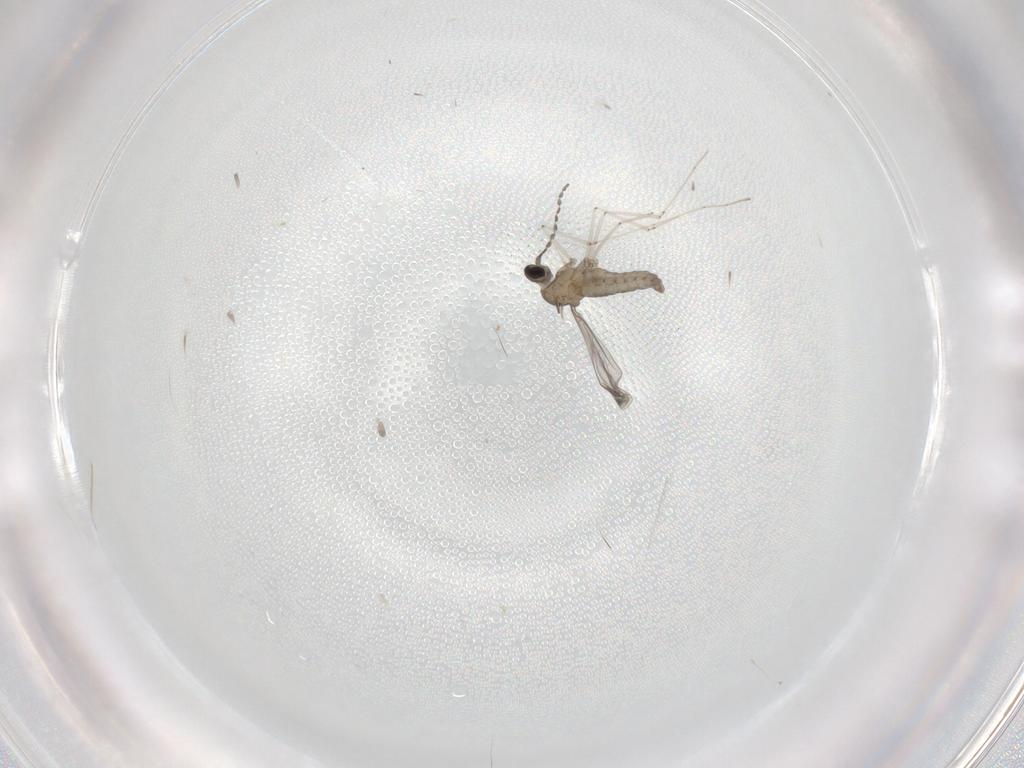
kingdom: Animalia
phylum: Arthropoda
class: Insecta
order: Diptera
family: Cecidomyiidae
